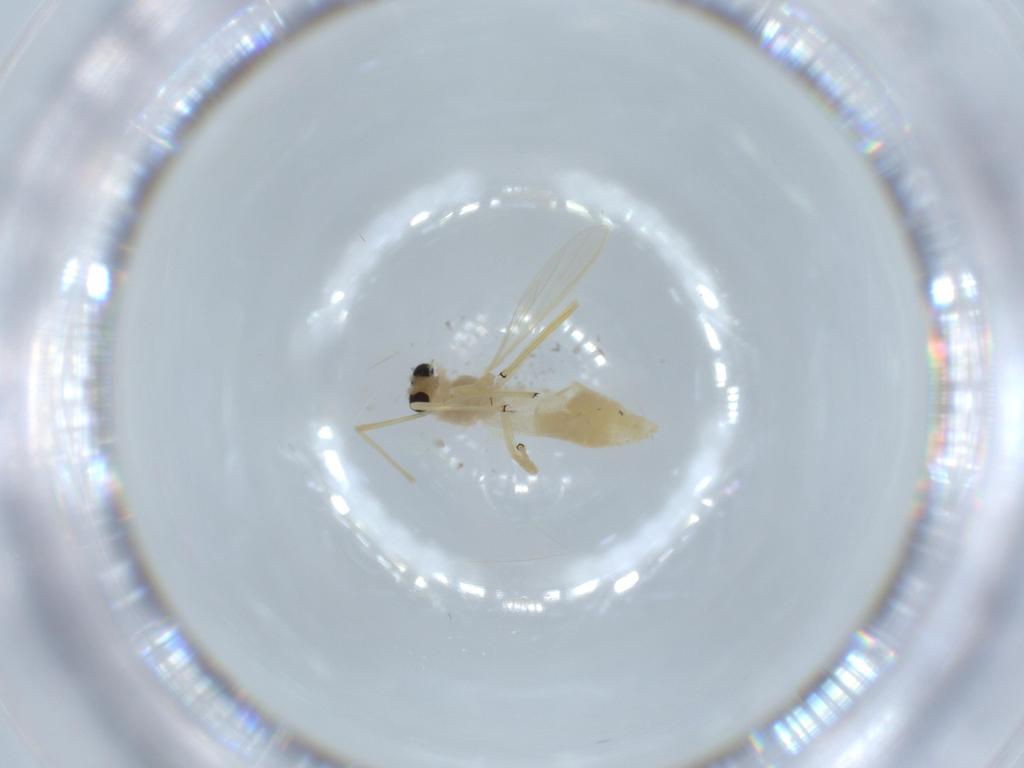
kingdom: Animalia
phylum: Arthropoda
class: Insecta
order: Diptera
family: Chironomidae
